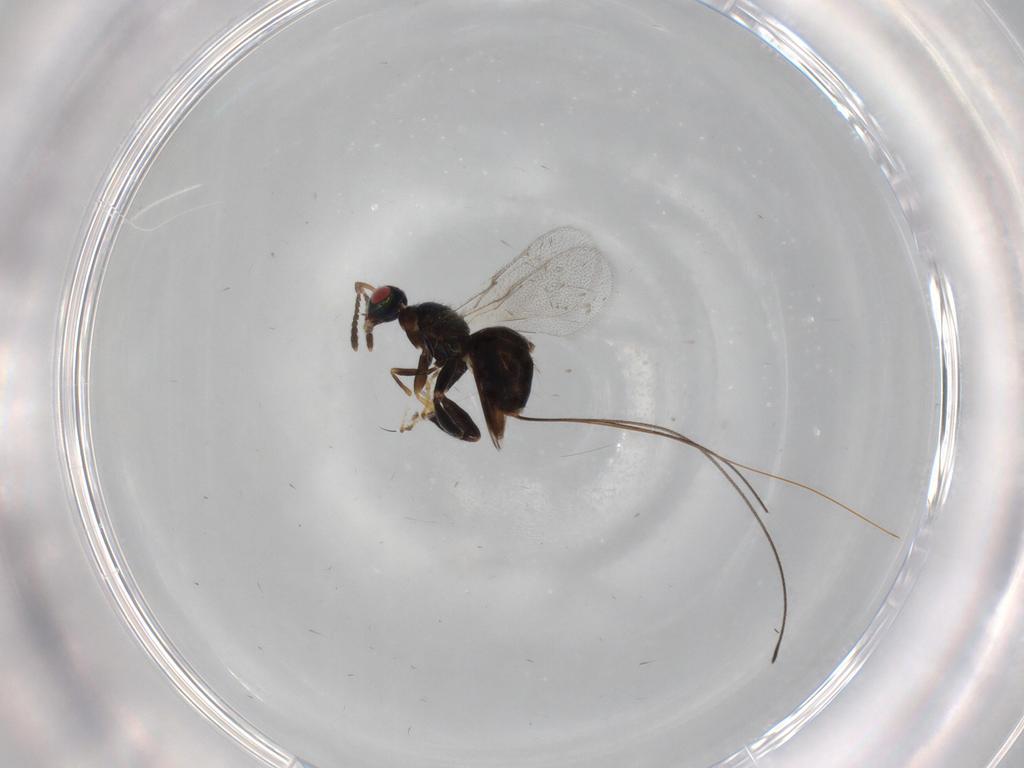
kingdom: Animalia
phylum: Arthropoda
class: Insecta
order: Hymenoptera
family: Torymidae
